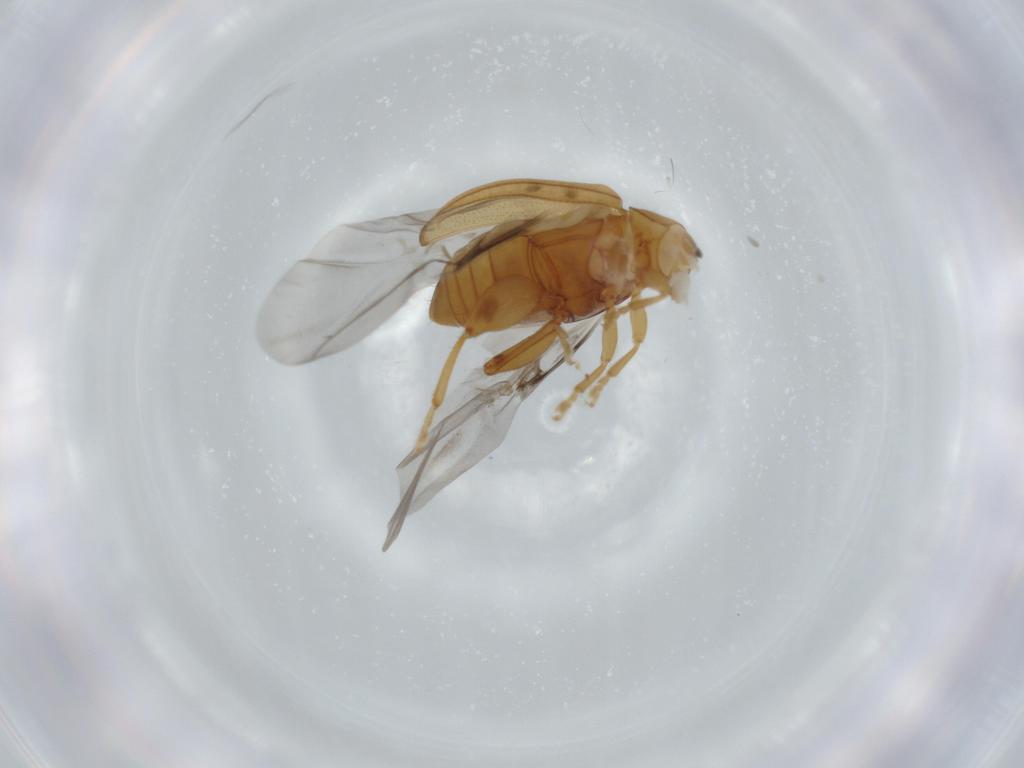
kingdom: Animalia
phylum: Arthropoda
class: Insecta
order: Coleoptera
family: Chrysomelidae
